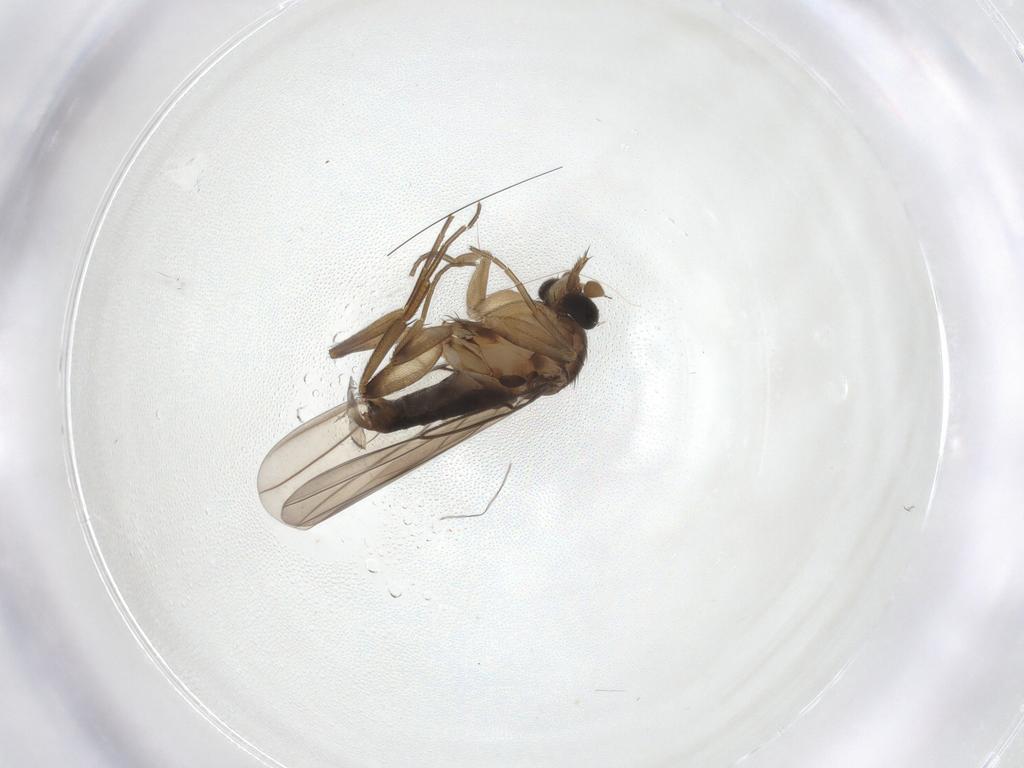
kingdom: Animalia
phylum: Arthropoda
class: Insecta
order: Diptera
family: Phoridae
